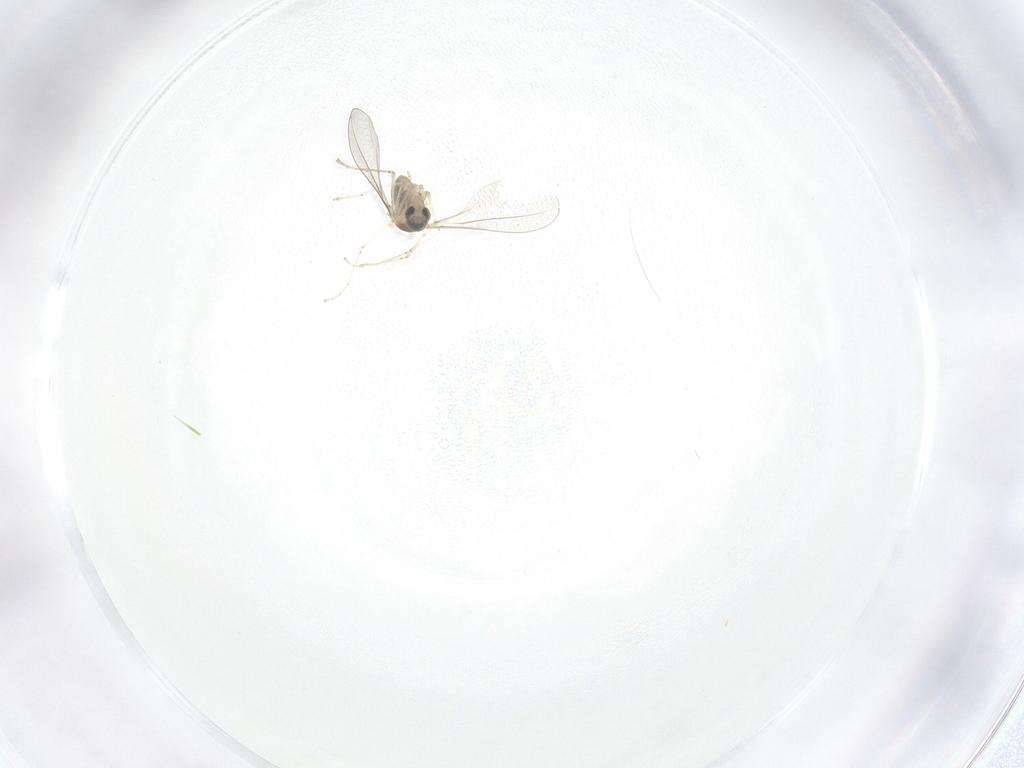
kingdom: Animalia
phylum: Arthropoda
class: Insecta
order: Diptera
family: Cecidomyiidae
